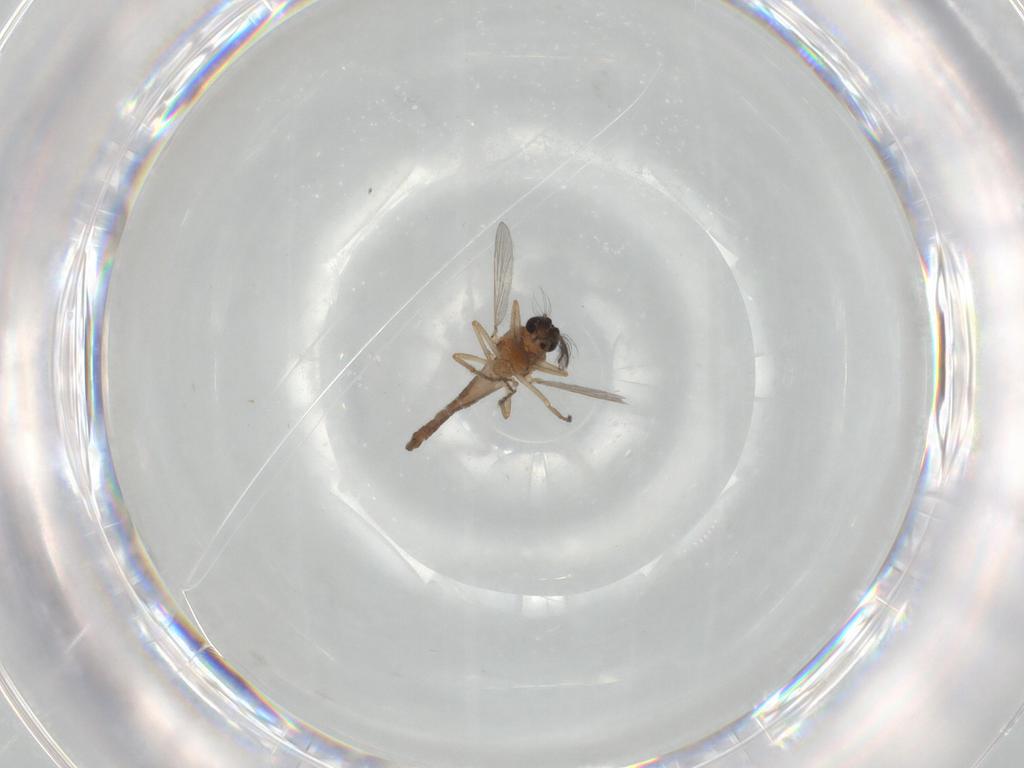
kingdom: Animalia
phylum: Arthropoda
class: Insecta
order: Diptera
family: Ceratopogonidae
